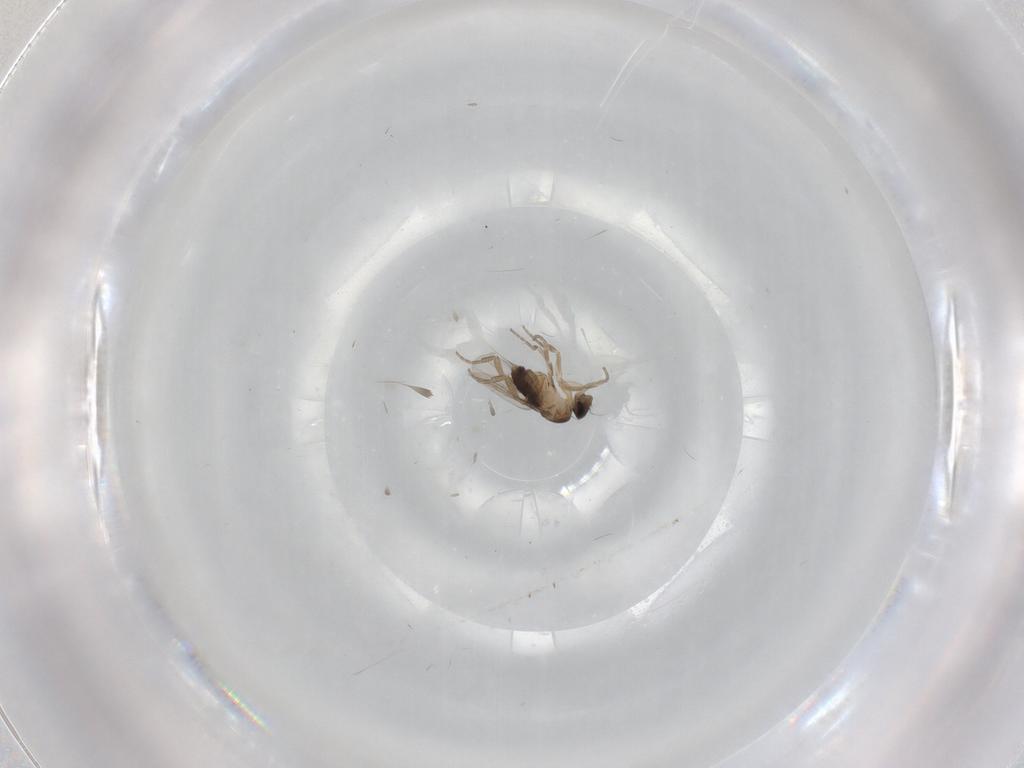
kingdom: Animalia
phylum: Arthropoda
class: Insecta
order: Diptera
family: Phoridae
